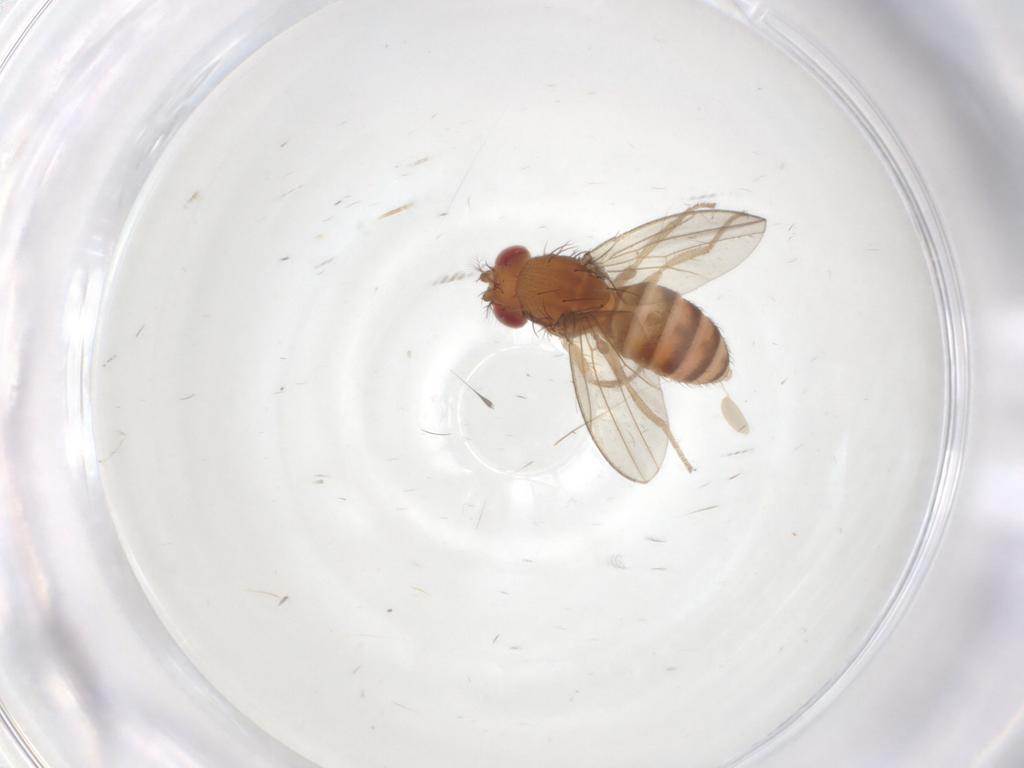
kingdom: Animalia
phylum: Arthropoda
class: Insecta
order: Diptera
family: Drosophilidae
